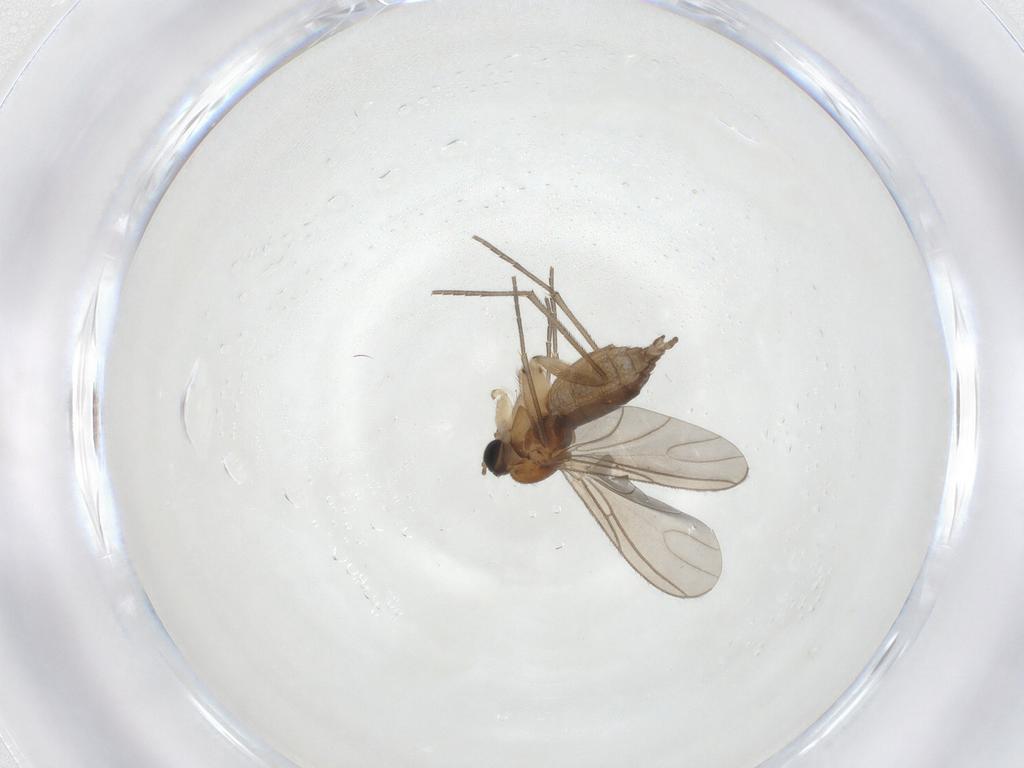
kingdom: Animalia
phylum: Arthropoda
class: Insecta
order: Diptera
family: Sciaridae
